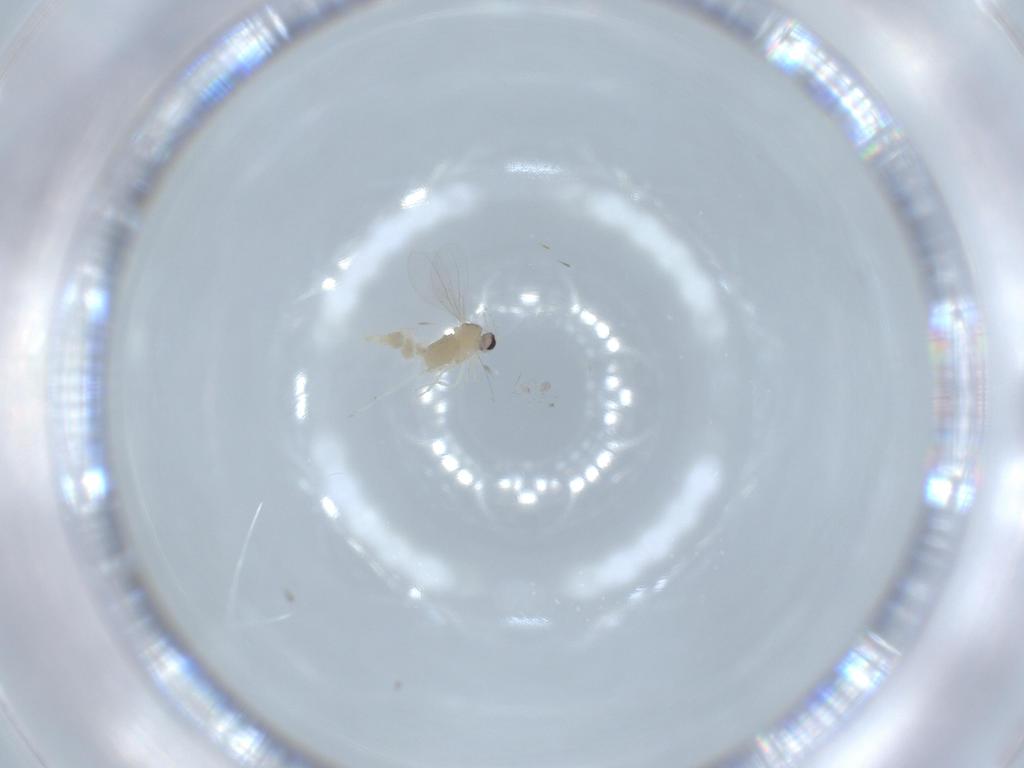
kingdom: Animalia
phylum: Arthropoda
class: Insecta
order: Diptera
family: Cecidomyiidae
